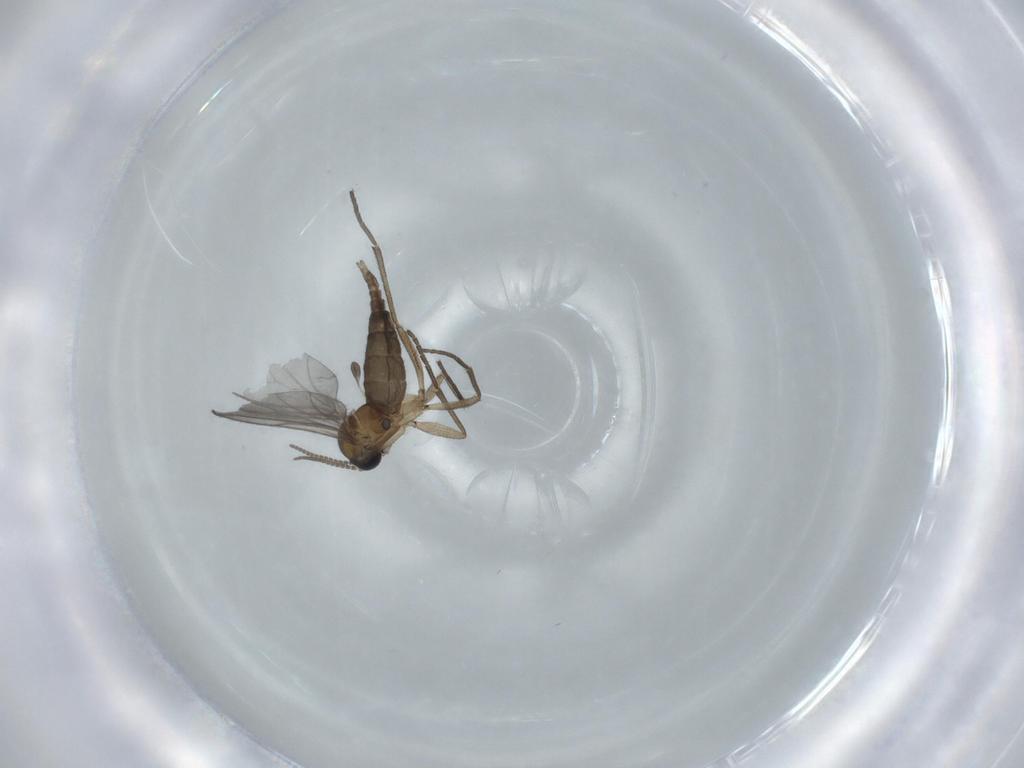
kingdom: Animalia
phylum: Arthropoda
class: Insecta
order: Diptera
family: Sciaridae
